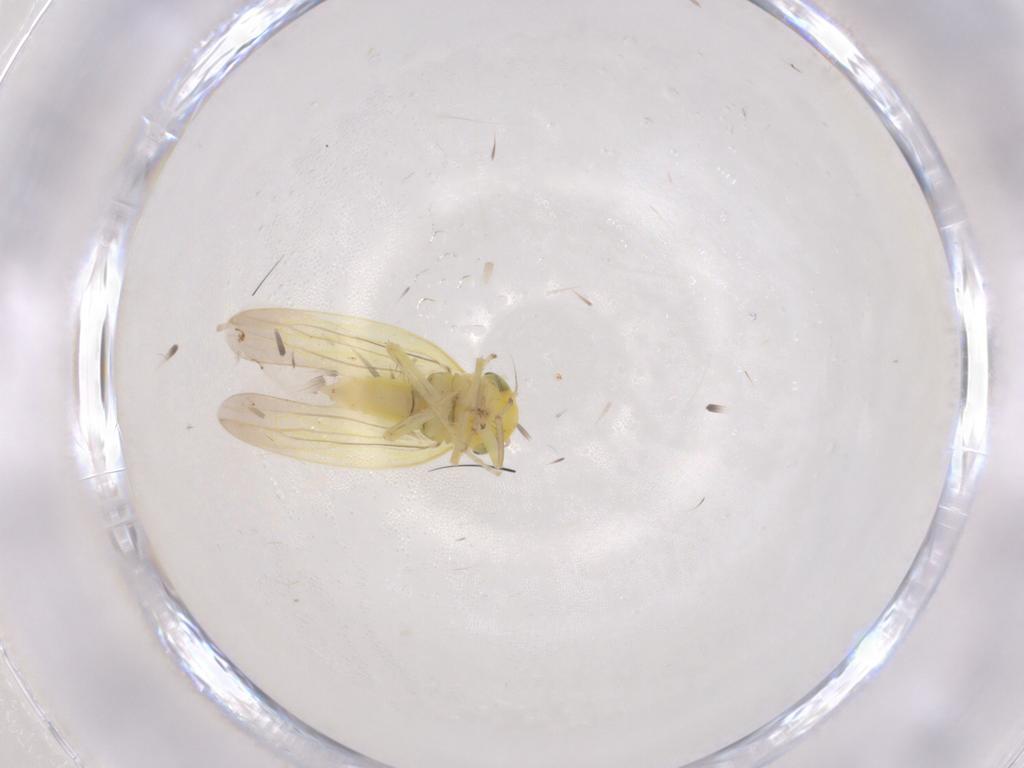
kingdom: Animalia
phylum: Arthropoda
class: Insecta
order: Hemiptera
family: Cicadellidae
